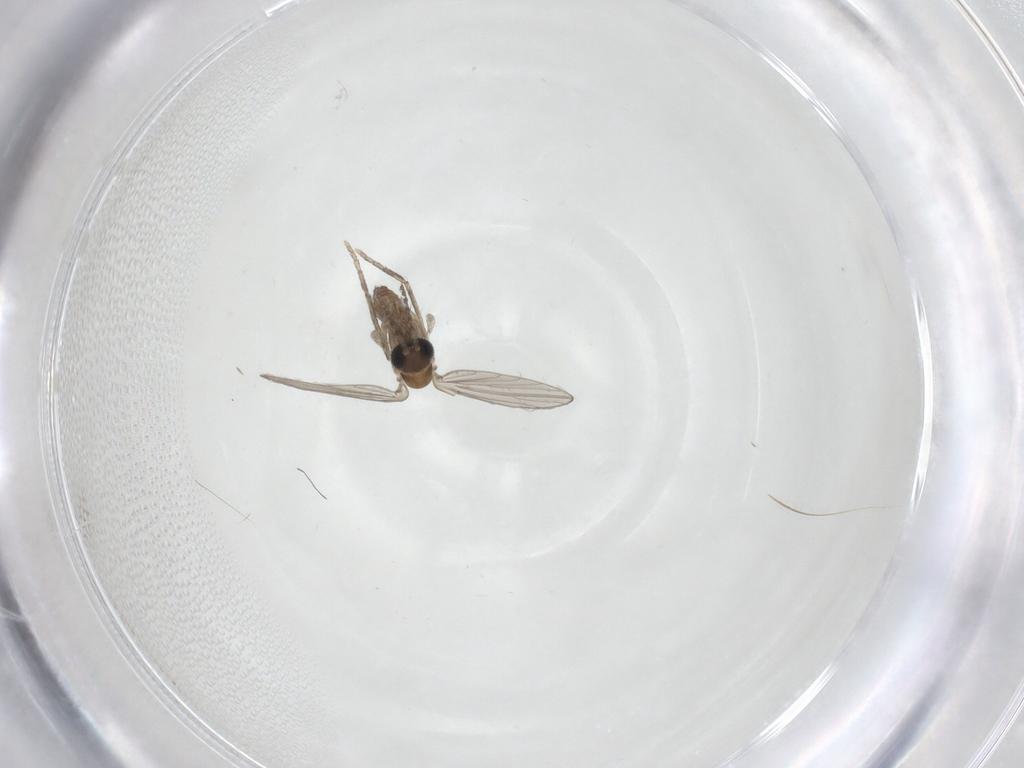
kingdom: Animalia
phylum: Arthropoda
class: Insecta
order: Diptera
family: Psychodidae
